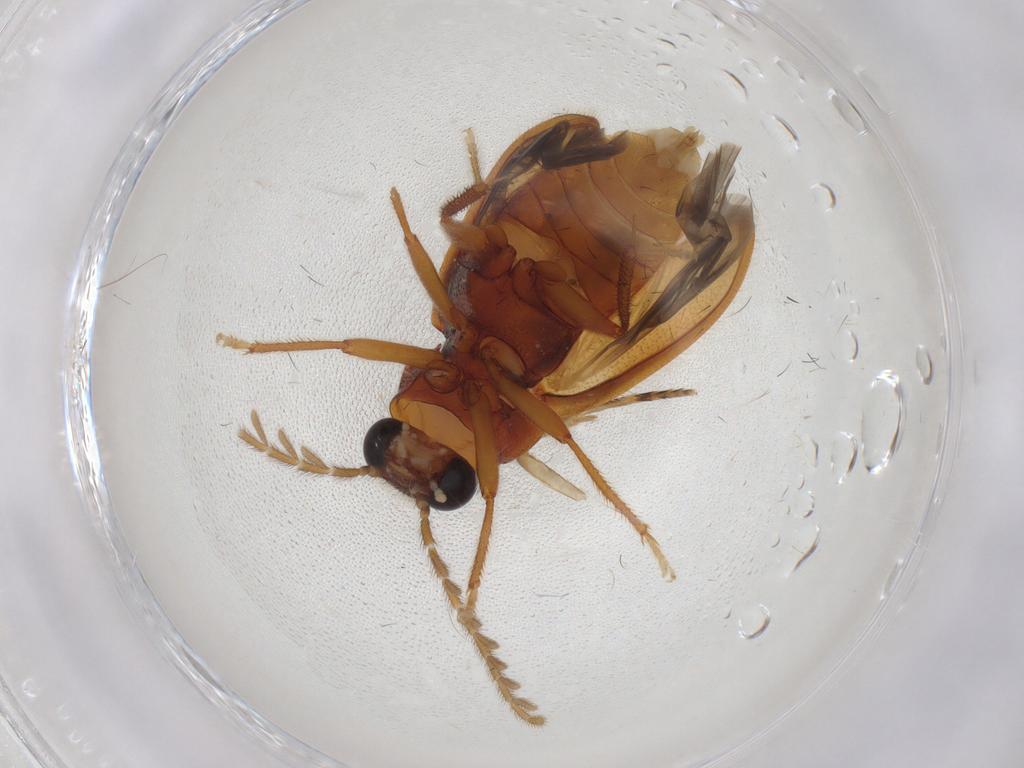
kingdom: Animalia
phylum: Arthropoda
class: Insecta
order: Coleoptera
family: Ptilodactylidae
